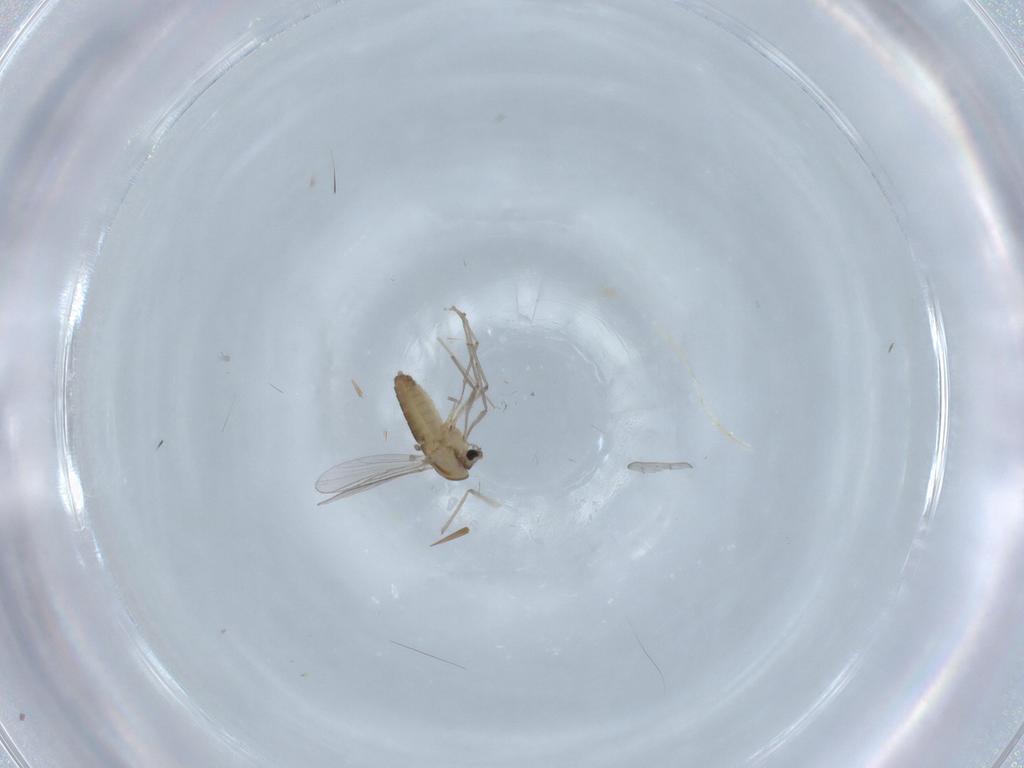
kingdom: Animalia
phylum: Arthropoda
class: Insecta
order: Diptera
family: Chironomidae
